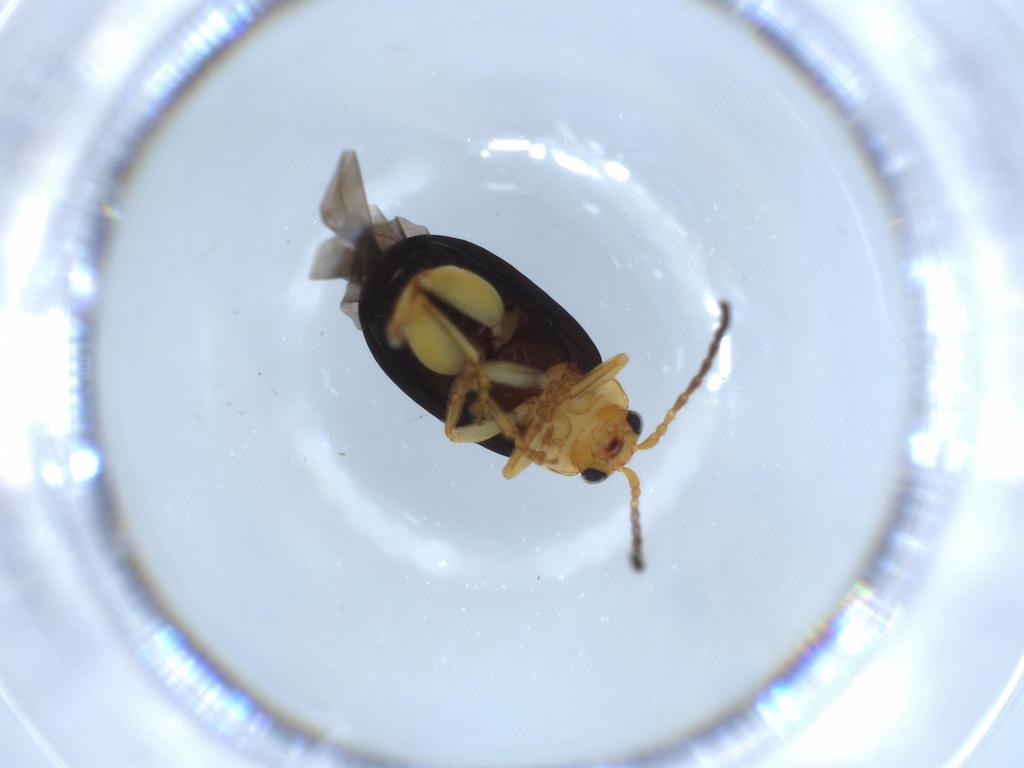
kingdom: Animalia
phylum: Arthropoda
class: Insecta
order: Coleoptera
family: Chrysomelidae
